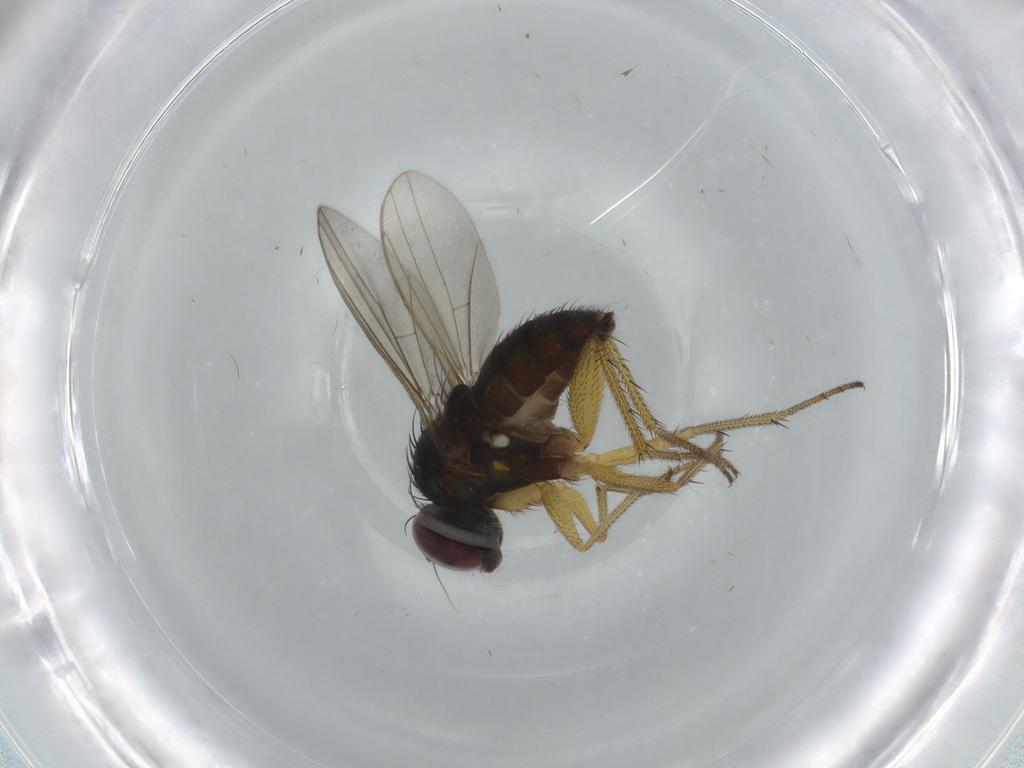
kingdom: Animalia
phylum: Arthropoda
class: Insecta
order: Diptera
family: Dolichopodidae
